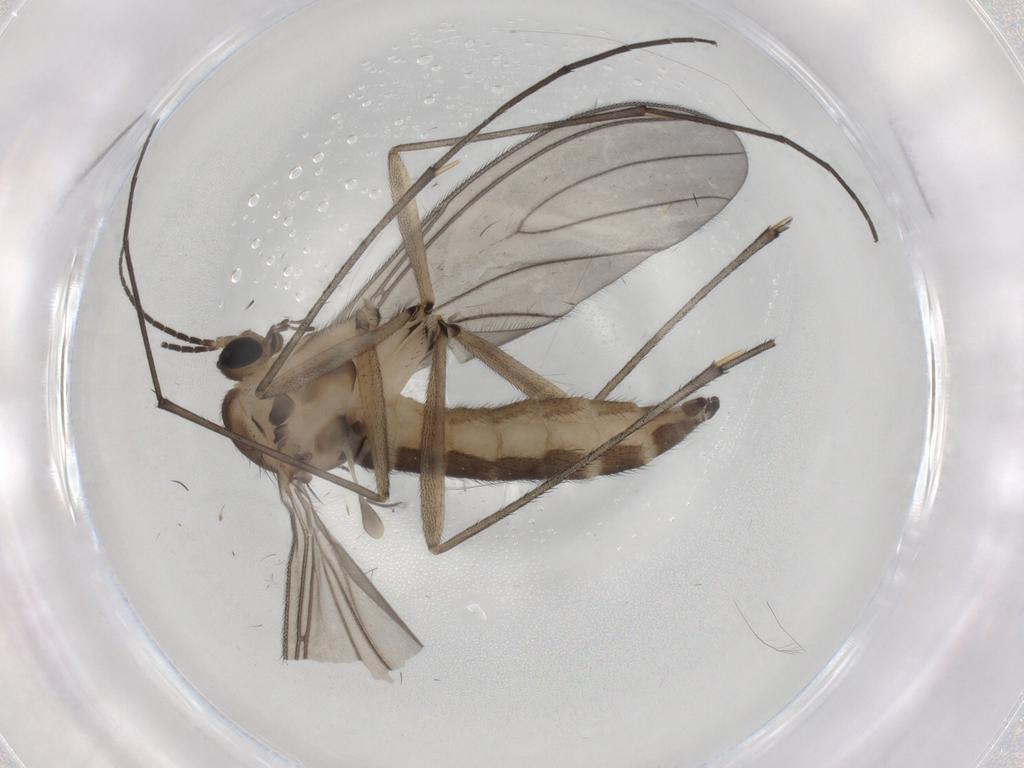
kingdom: Animalia
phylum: Arthropoda
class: Insecta
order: Diptera
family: Sciaridae
